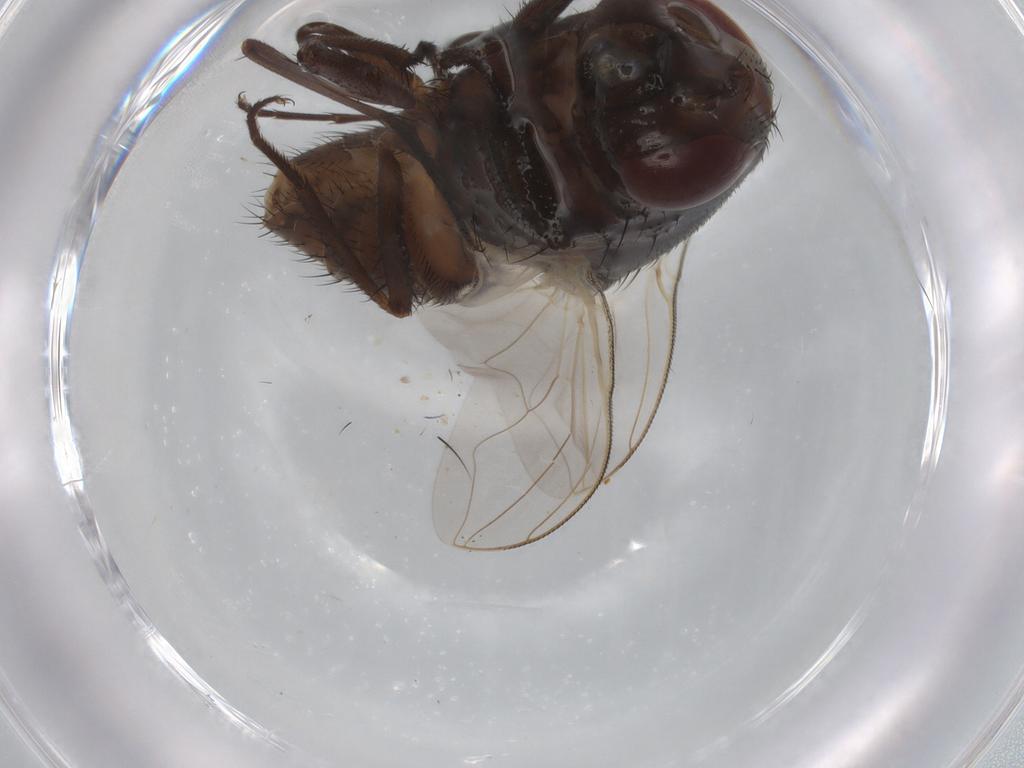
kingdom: Animalia
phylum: Arthropoda
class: Insecta
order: Diptera
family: Muscidae
